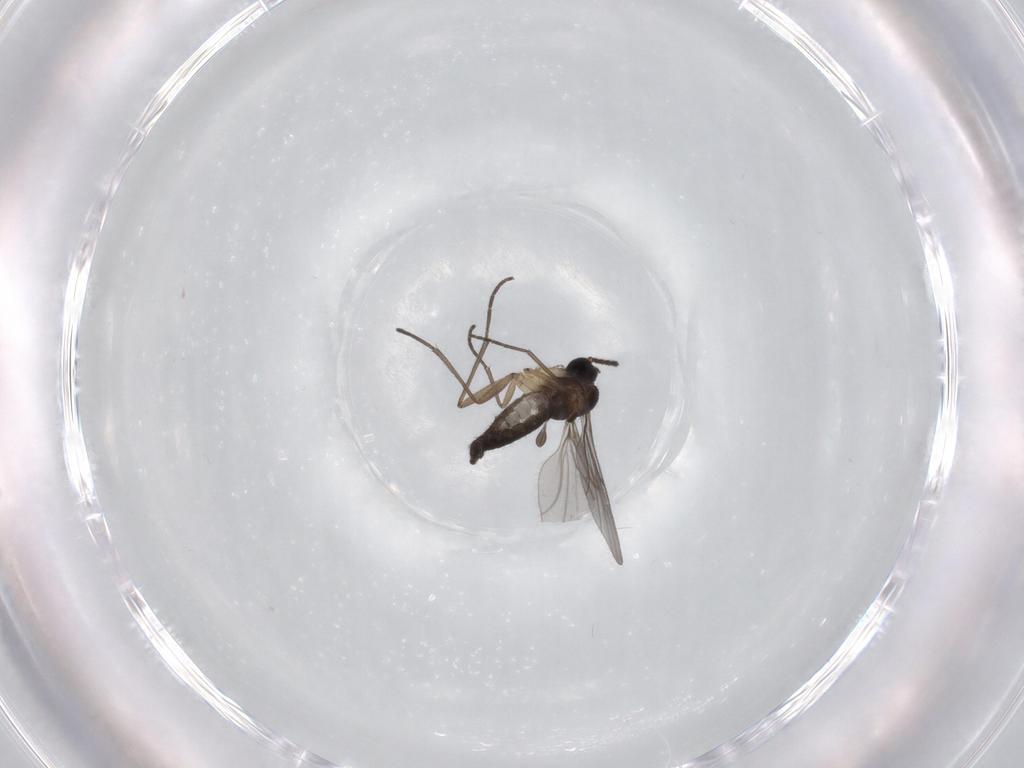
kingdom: Animalia
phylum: Arthropoda
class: Insecta
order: Diptera
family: Sciaridae
